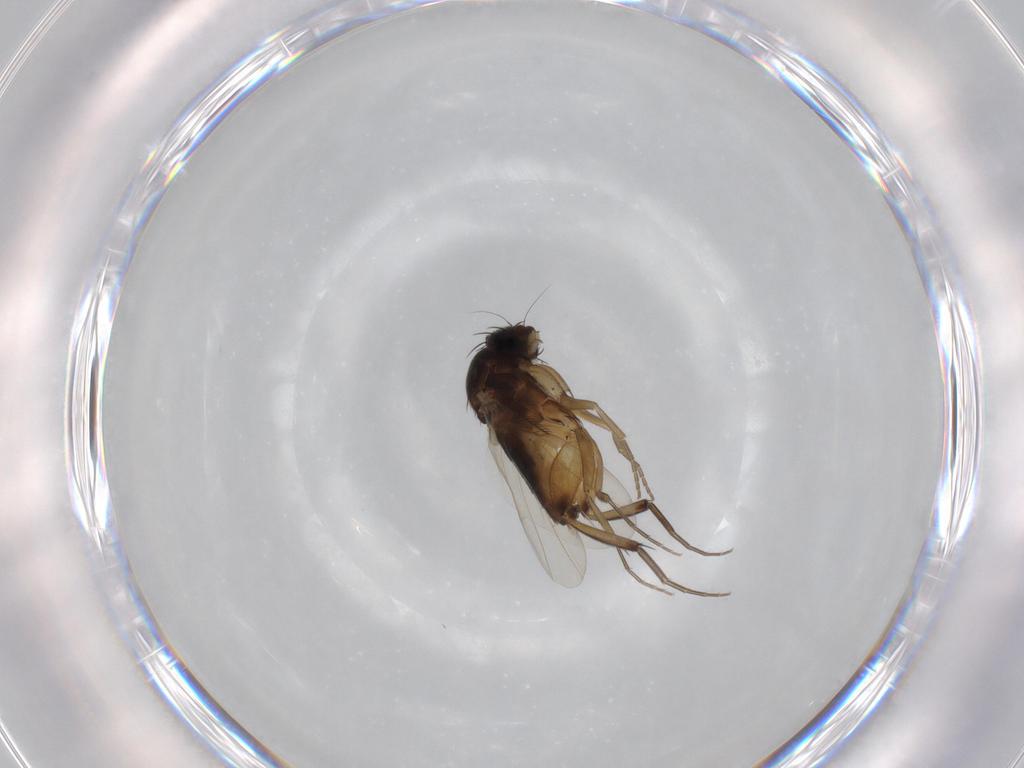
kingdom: Animalia
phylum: Arthropoda
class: Insecta
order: Diptera
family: Phoridae
